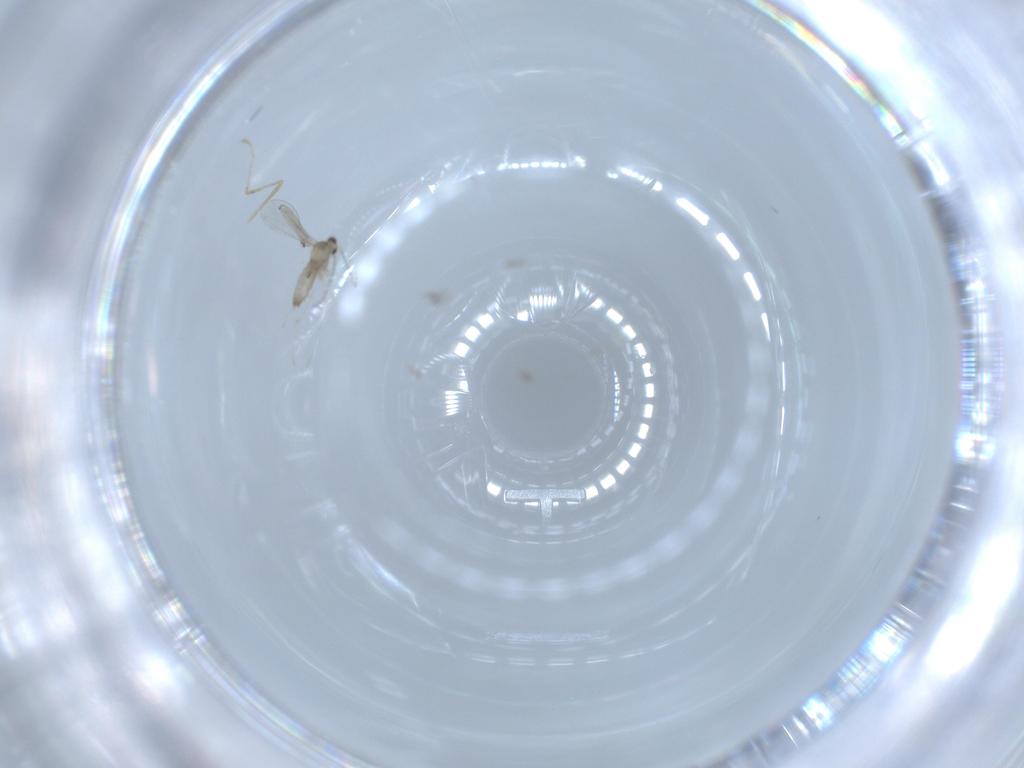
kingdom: Animalia
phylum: Arthropoda
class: Insecta
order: Diptera
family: Cecidomyiidae
